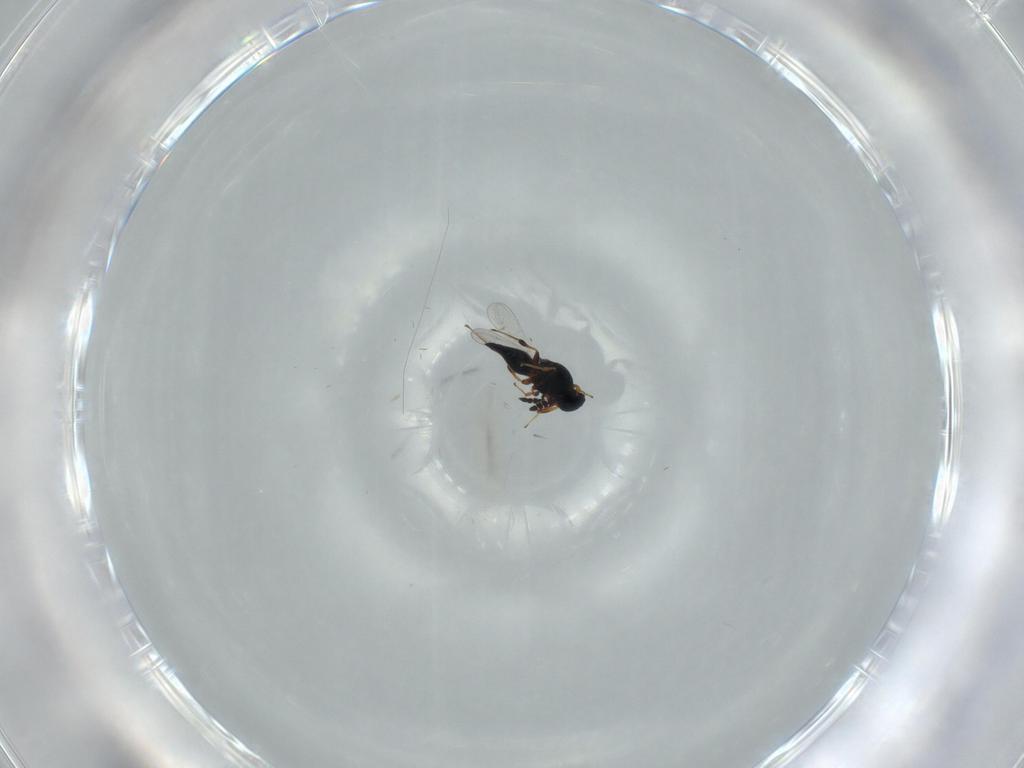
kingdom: Animalia
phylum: Arthropoda
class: Insecta
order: Hymenoptera
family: Platygastridae
